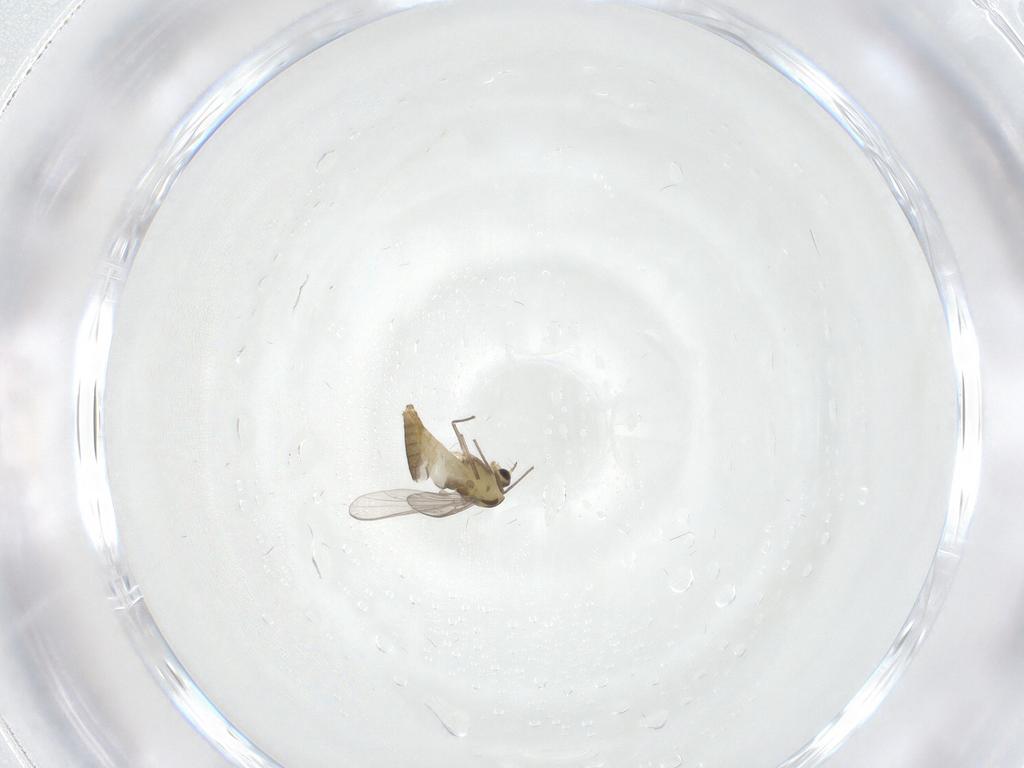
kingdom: Animalia
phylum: Arthropoda
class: Insecta
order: Diptera
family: Chironomidae
